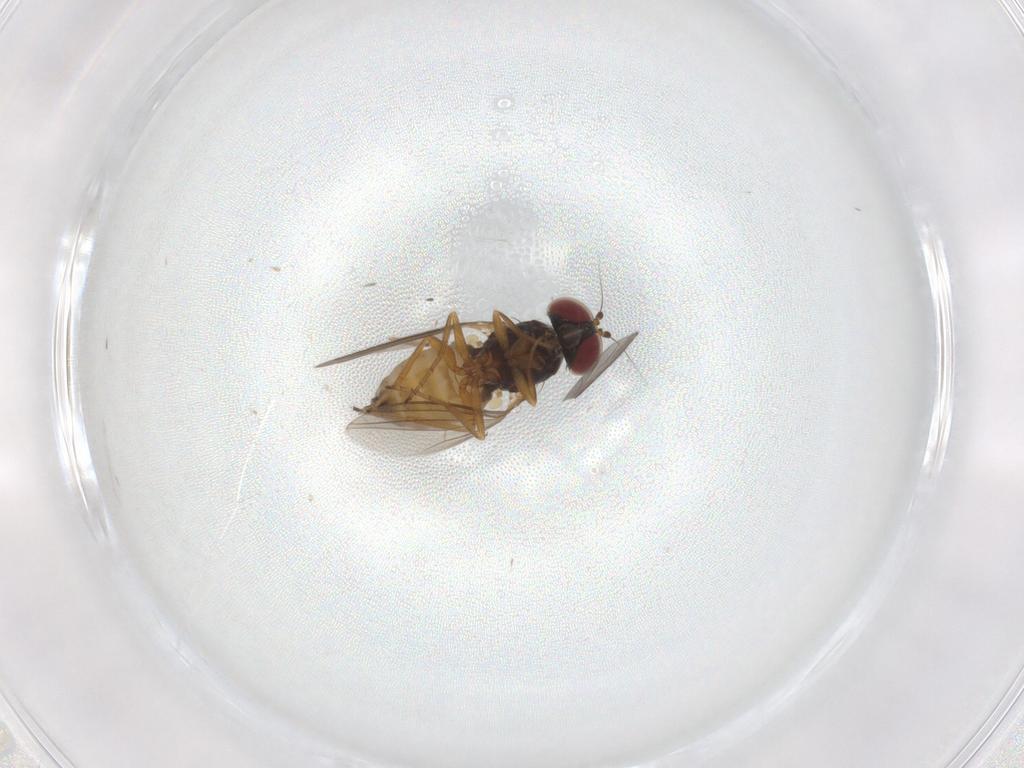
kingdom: Animalia
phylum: Arthropoda
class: Insecta
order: Diptera
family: Dolichopodidae
